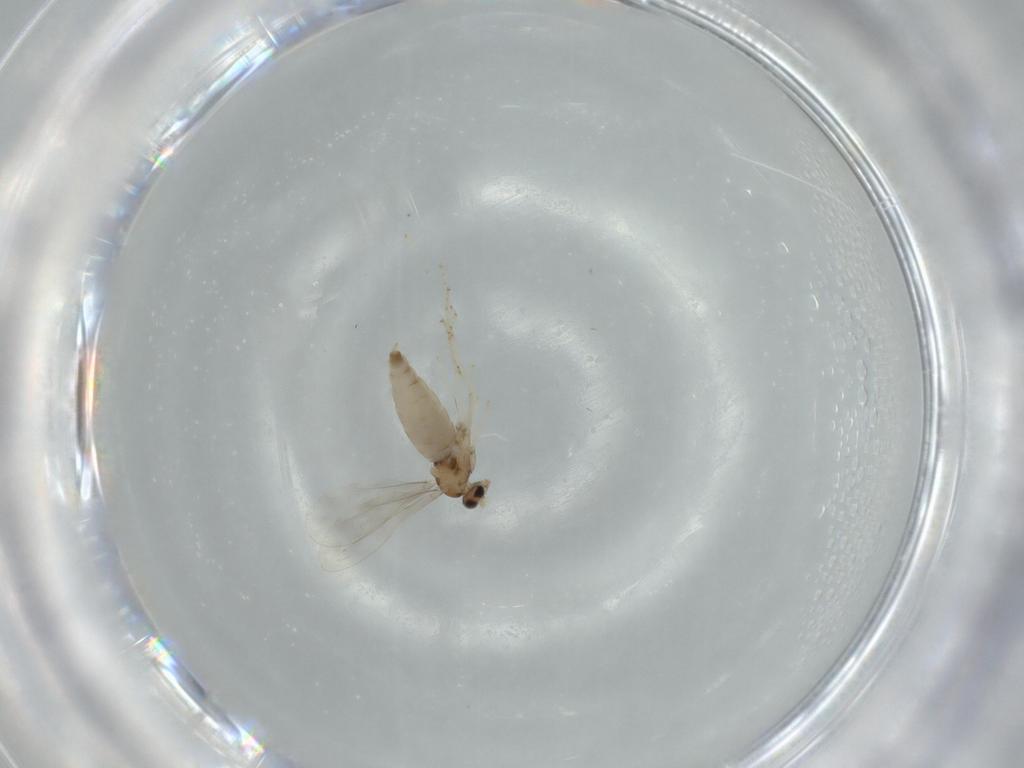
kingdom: Animalia
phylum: Arthropoda
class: Insecta
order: Diptera
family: Cecidomyiidae
